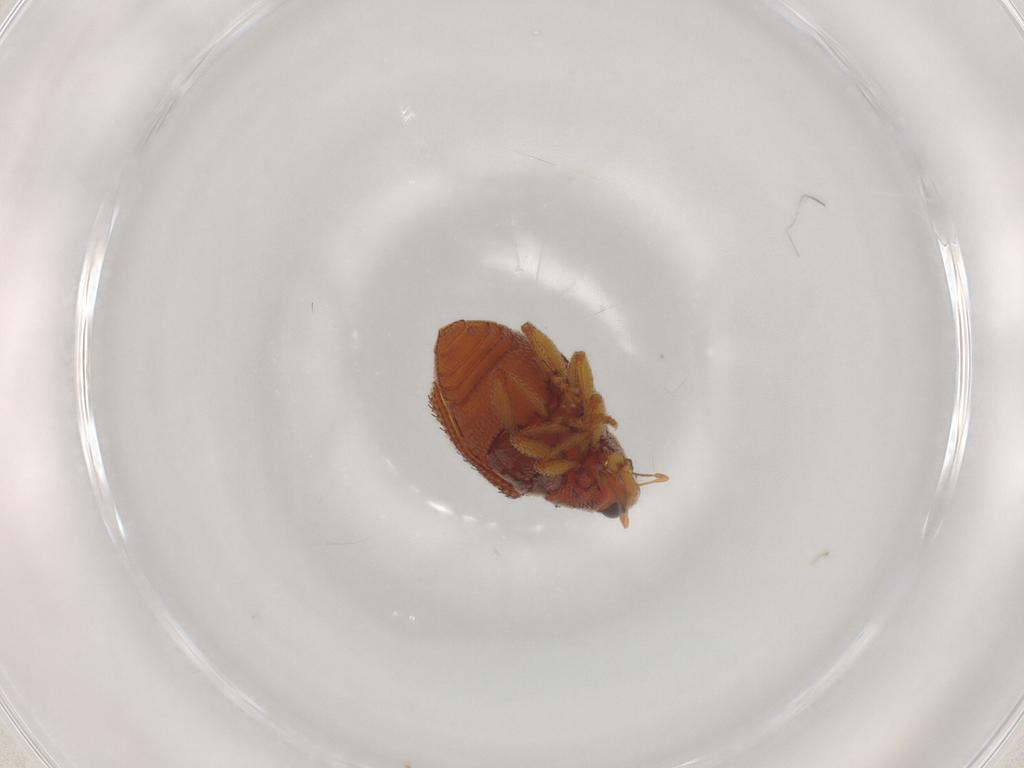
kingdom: Animalia
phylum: Arthropoda
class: Insecta
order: Coleoptera
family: Curculionidae
